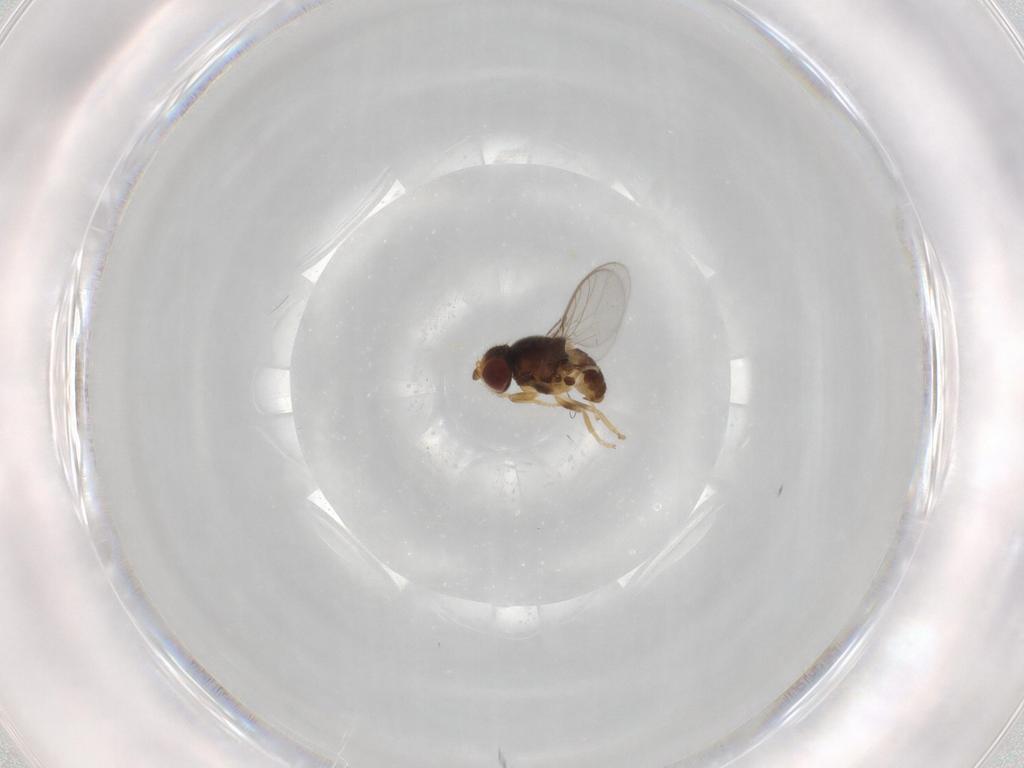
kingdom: Animalia
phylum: Arthropoda
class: Insecta
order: Diptera
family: Chloropidae
